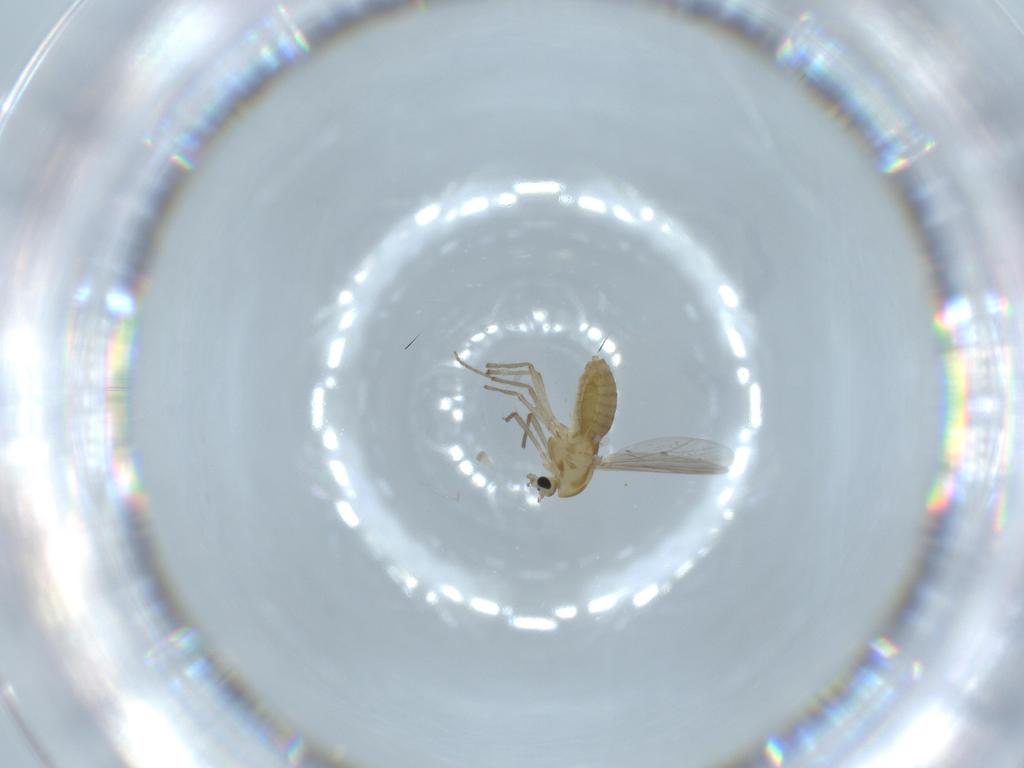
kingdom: Animalia
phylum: Arthropoda
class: Insecta
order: Diptera
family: Chironomidae
